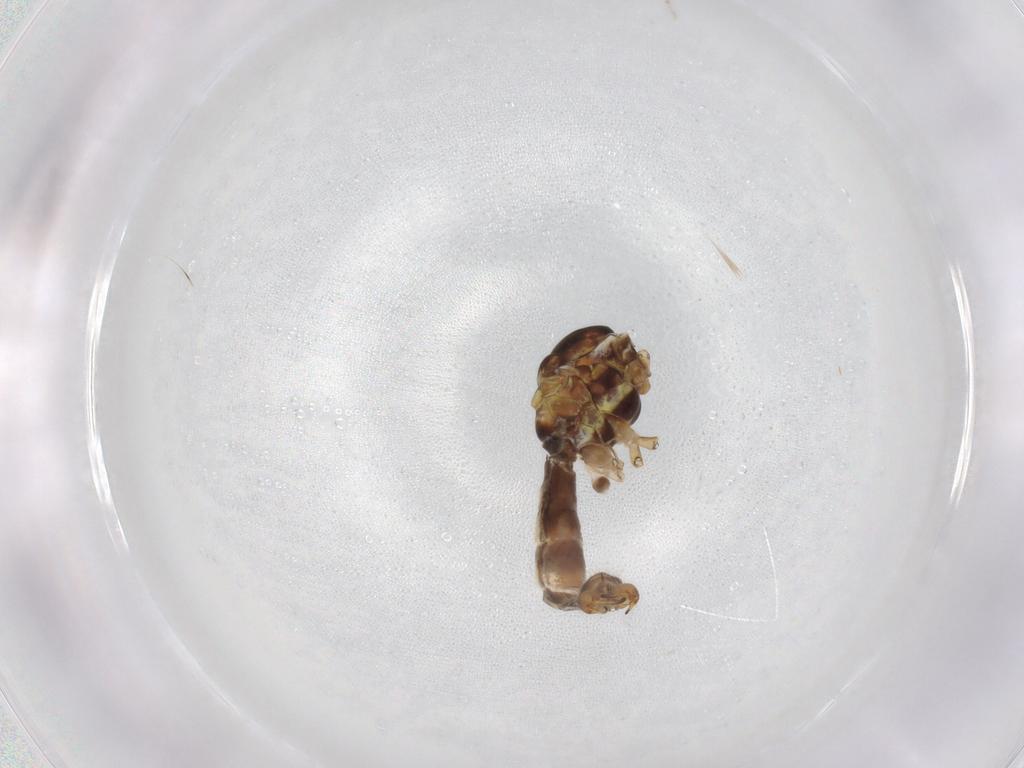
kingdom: Animalia
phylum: Arthropoda
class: Insecta
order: Diptera
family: Limoniidae
